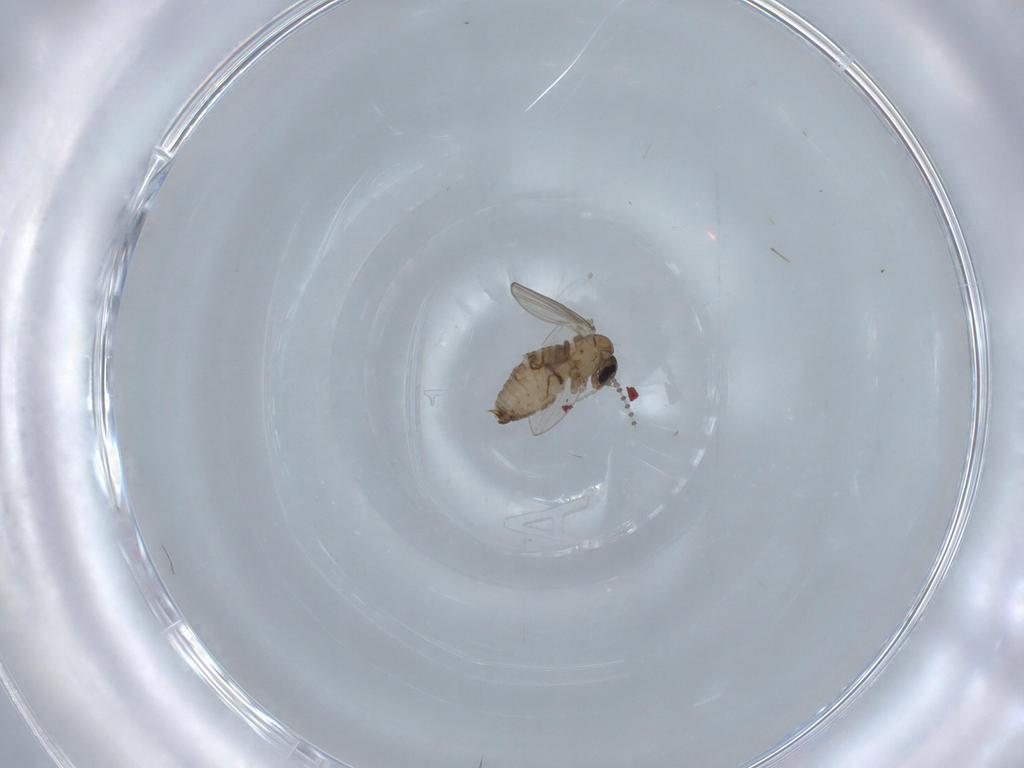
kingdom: Animalia
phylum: Arthropoda
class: Insecta
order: Diptera
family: Psychodidae
